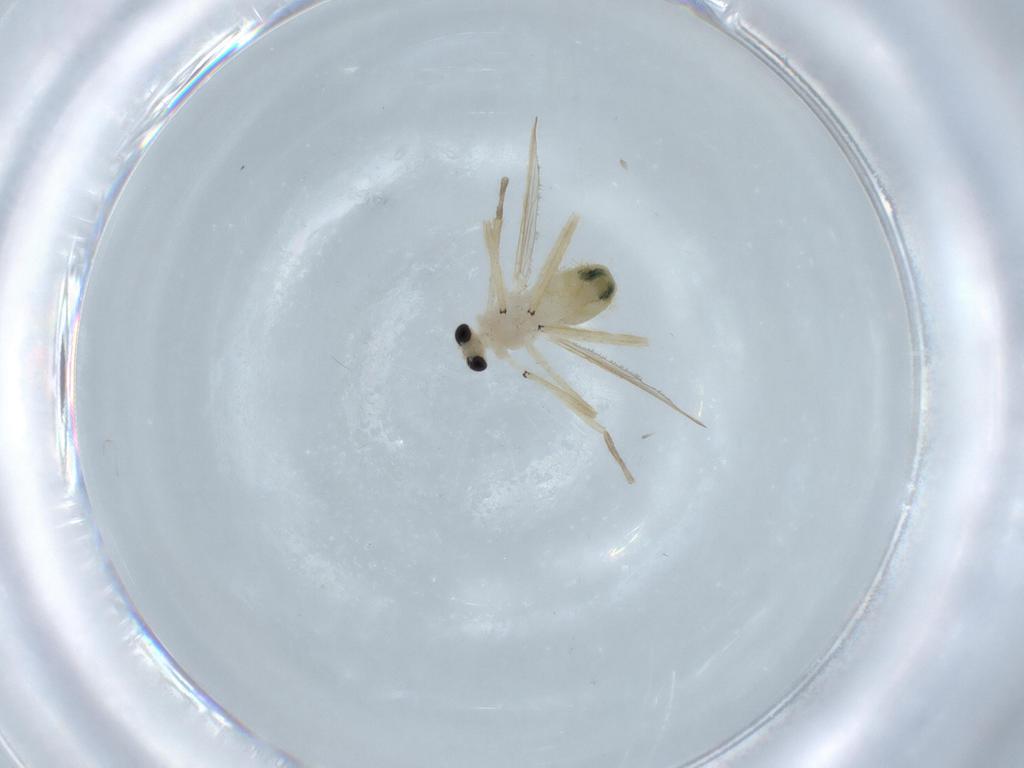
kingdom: Animalia
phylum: Arthropoda
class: Insecta
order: Diptera
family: Chironomidae
